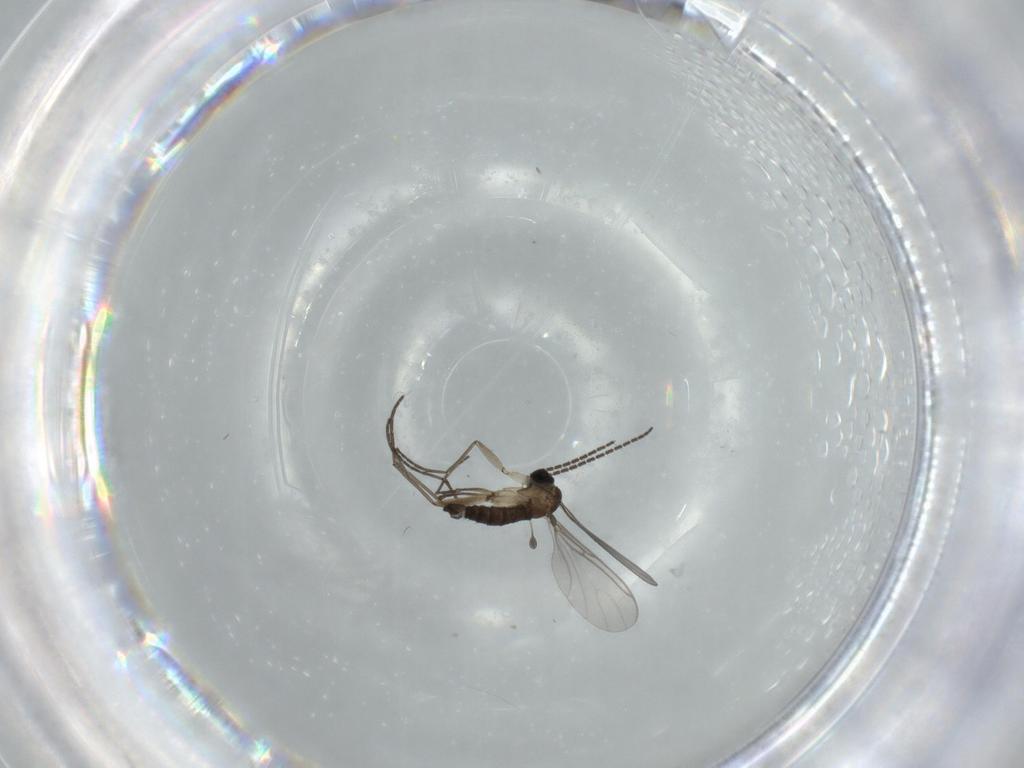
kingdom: Animalia
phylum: Arthropoda
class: Insecta
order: Diptera
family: Sciaridae
